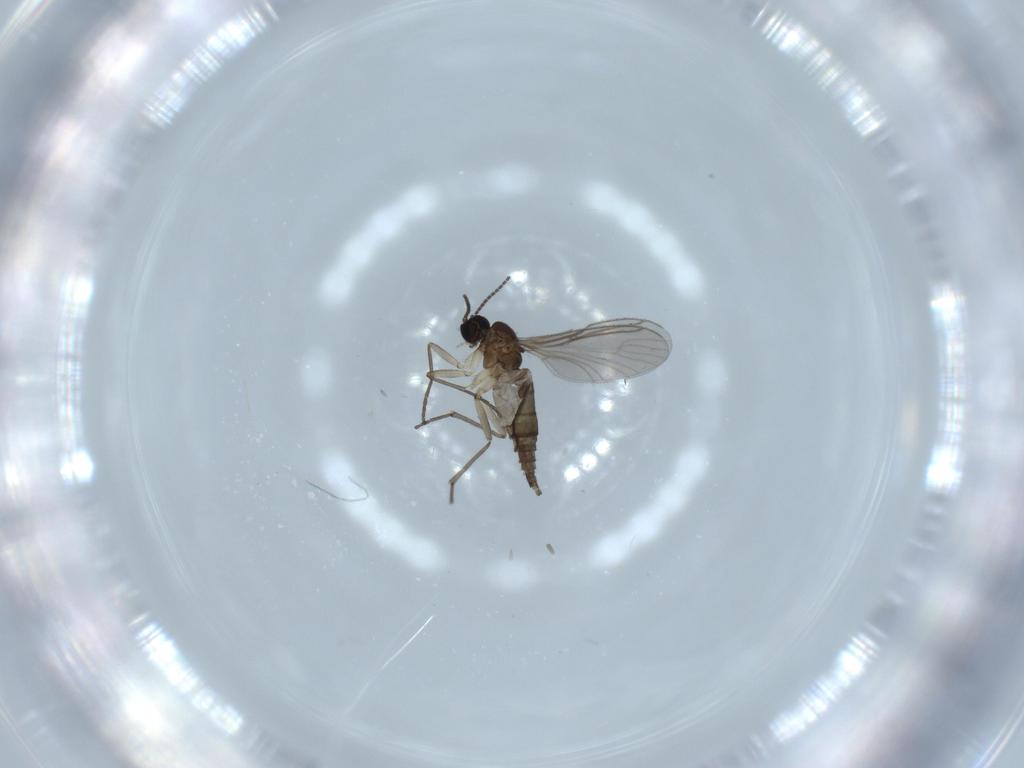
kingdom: Animalia
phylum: Arthropoda
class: Insecta
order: Diptera
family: Sciaridae
